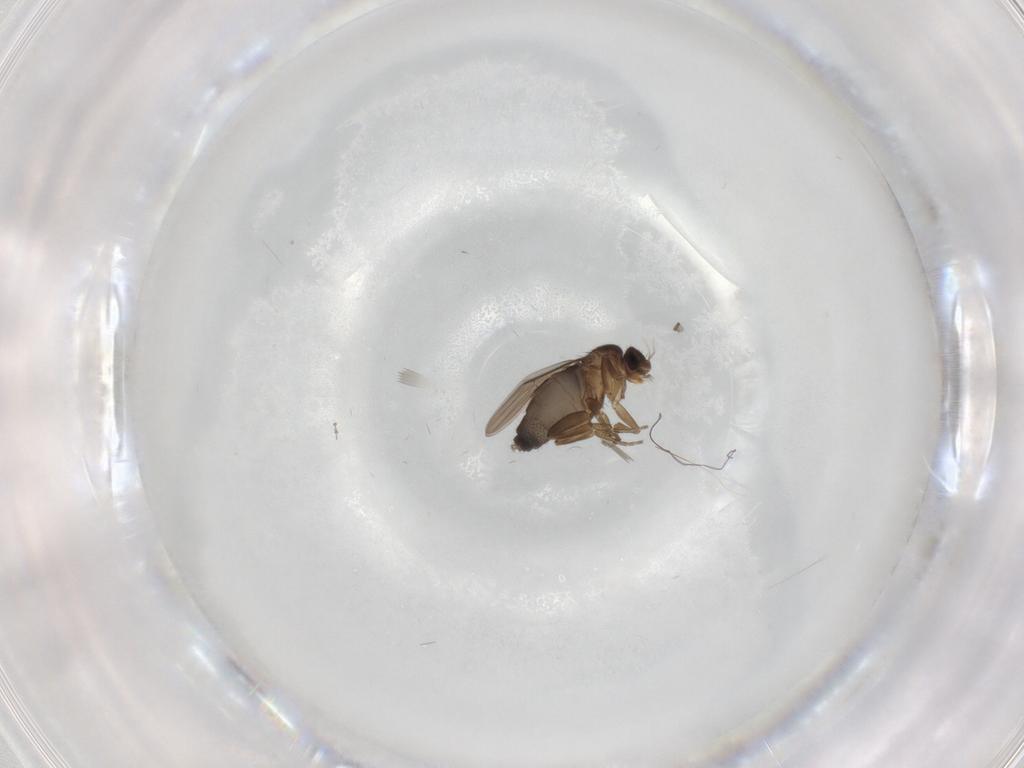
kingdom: Animalia
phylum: Arthropoda
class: Insecta
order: Diptera
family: Phoridae
